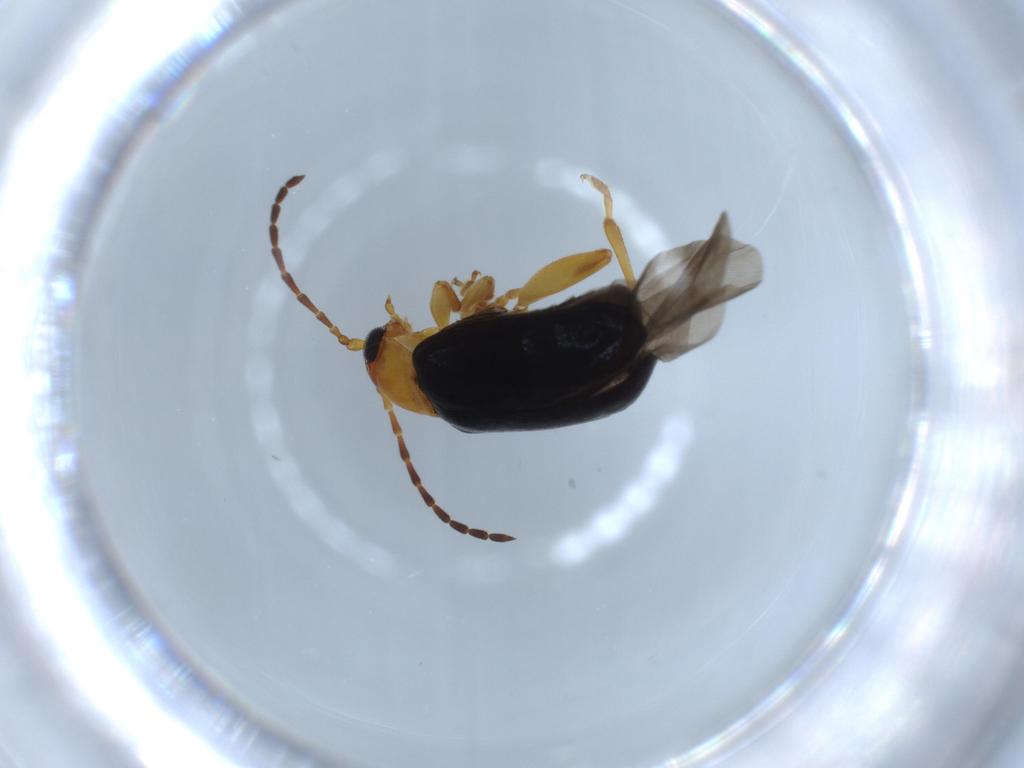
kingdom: Animalia
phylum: Arthropoda
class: Insecta
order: Coleoptera
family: Chrysomelidae
